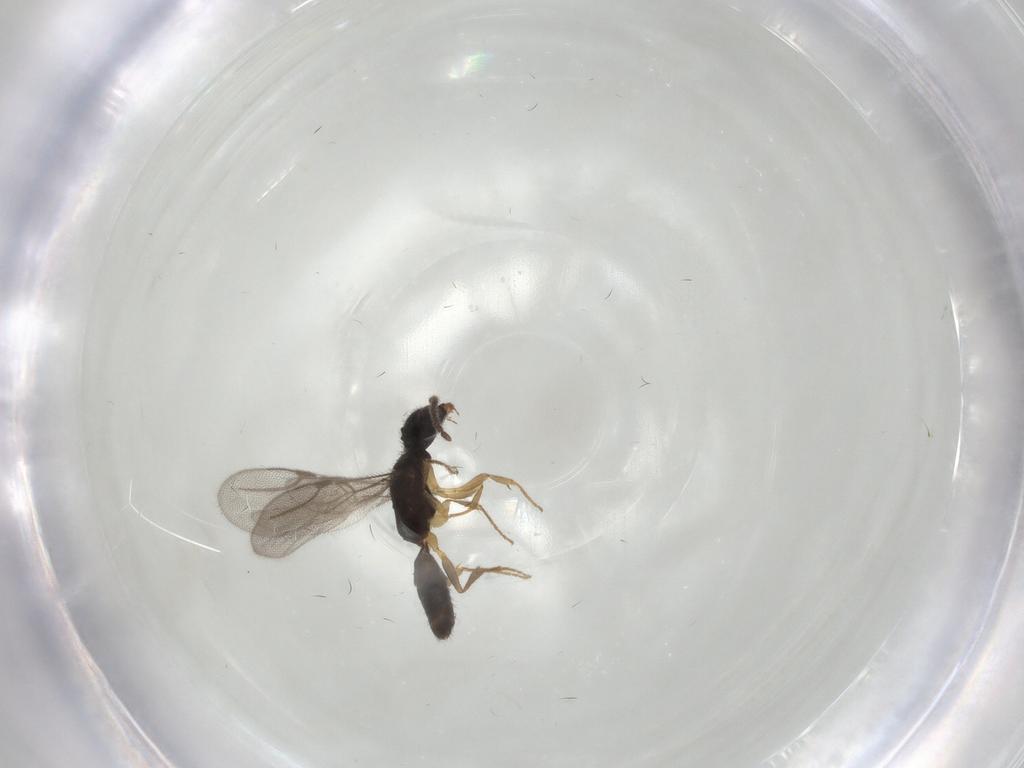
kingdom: Animalia
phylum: Arthropoda
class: Insecta
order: Hymenoptera
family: Bethylidae
